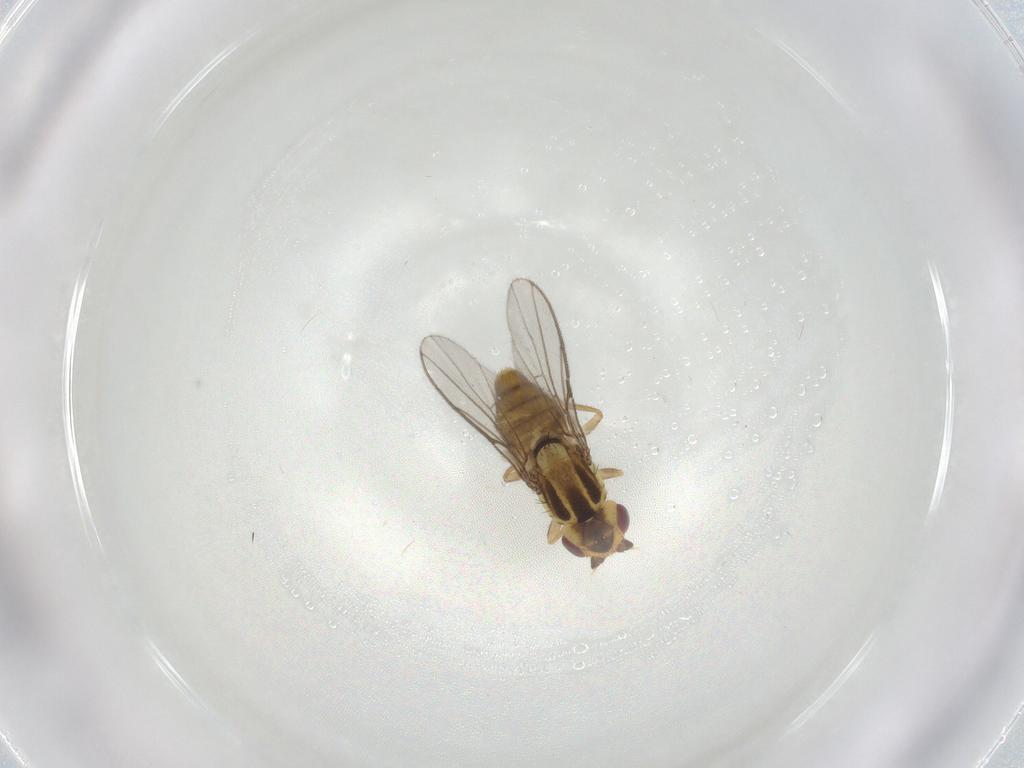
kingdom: Animalia
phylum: Arthropoda
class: Insecta
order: Diptera
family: Chloropidae
